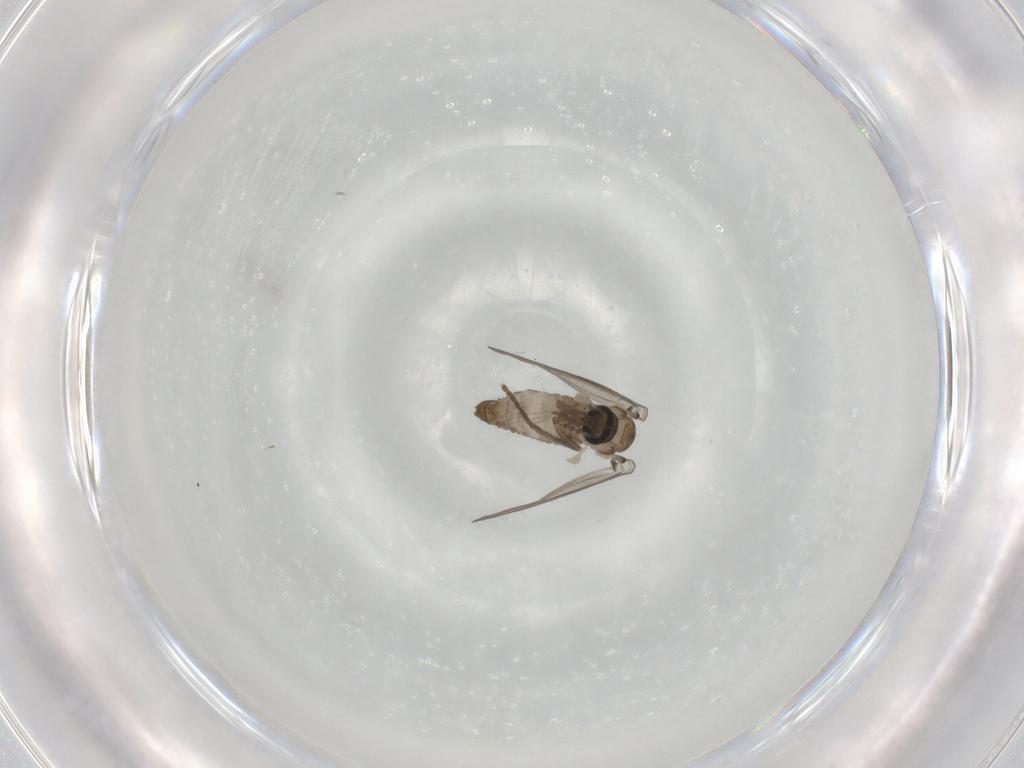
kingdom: Animalia
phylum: Arthropoda
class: Insecta
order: Diptera
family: Psychodidae
